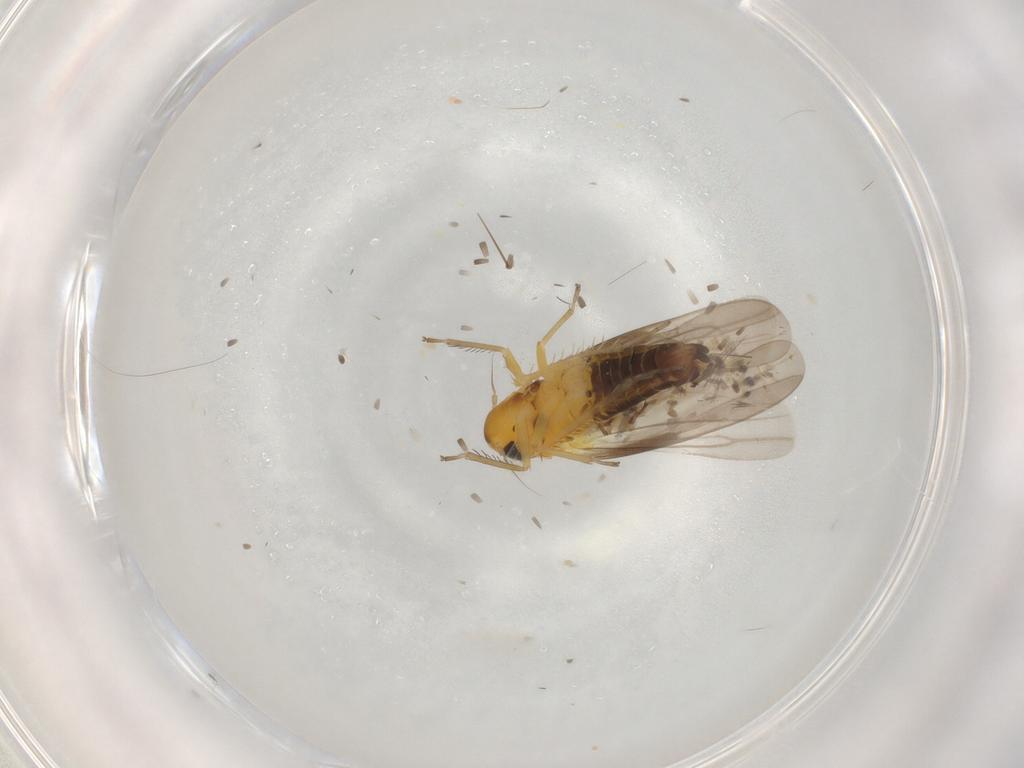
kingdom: Animalia
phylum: Arthropoda
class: Insecta
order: Hemiptera
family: Cicadellidae
